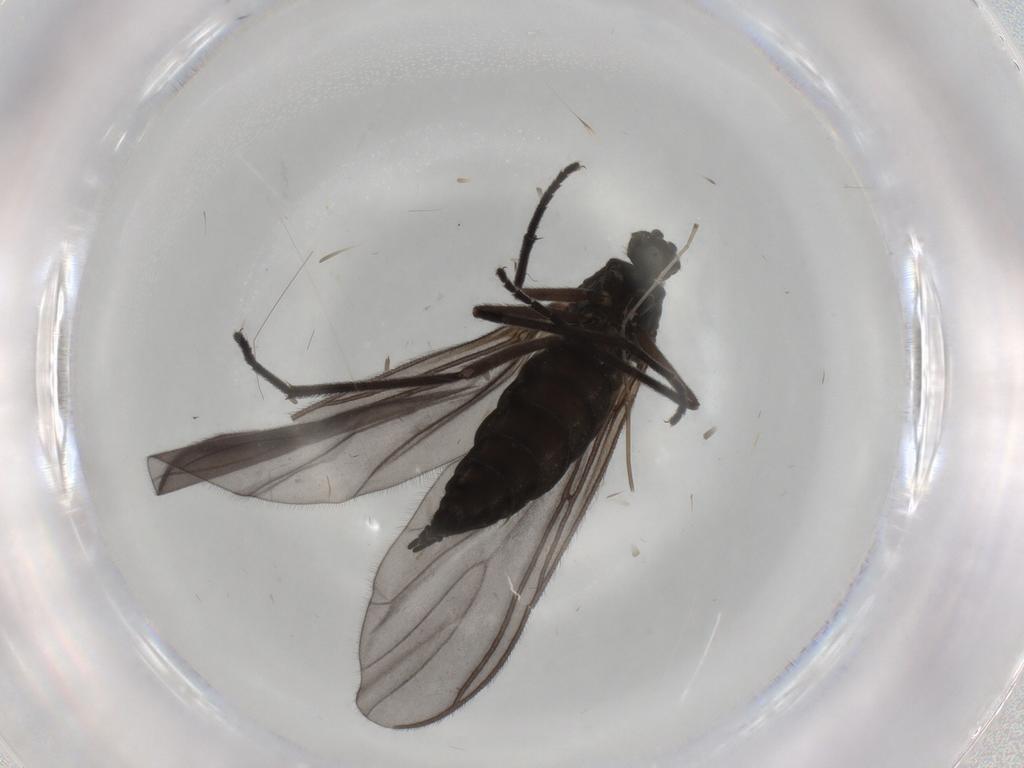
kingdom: Animalia
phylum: Arthropoda
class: Insecta
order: Diptera
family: Sciaridae
